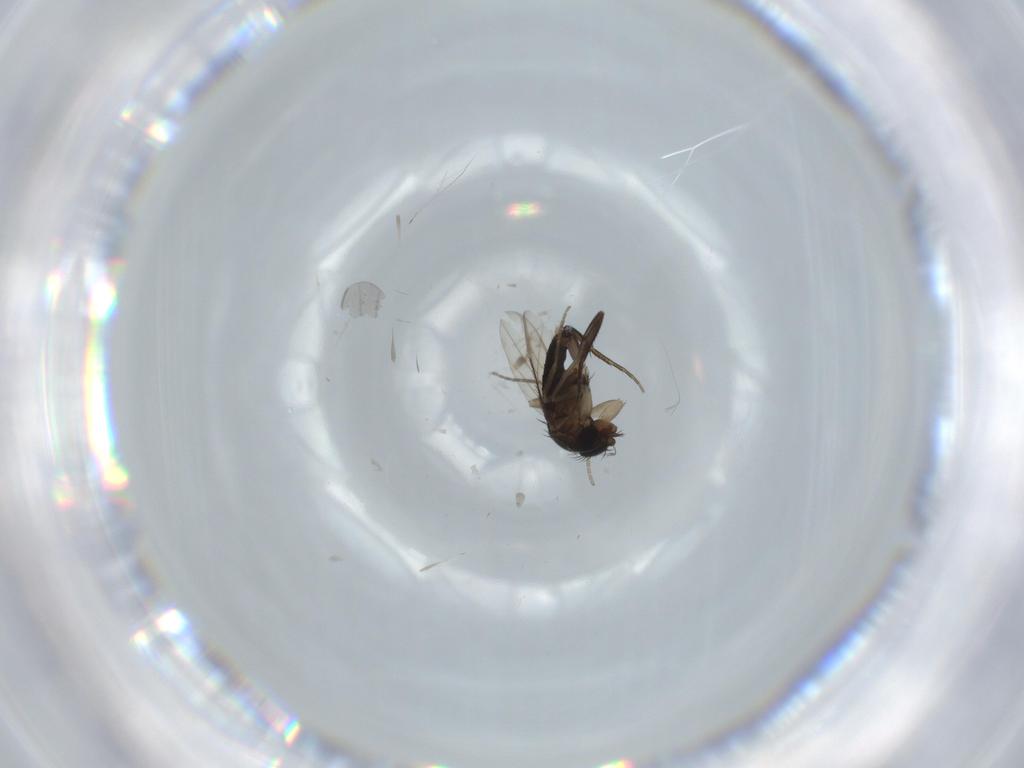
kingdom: Animalia
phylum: Arthropoda
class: Insecta
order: Diptera
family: Phoridae
